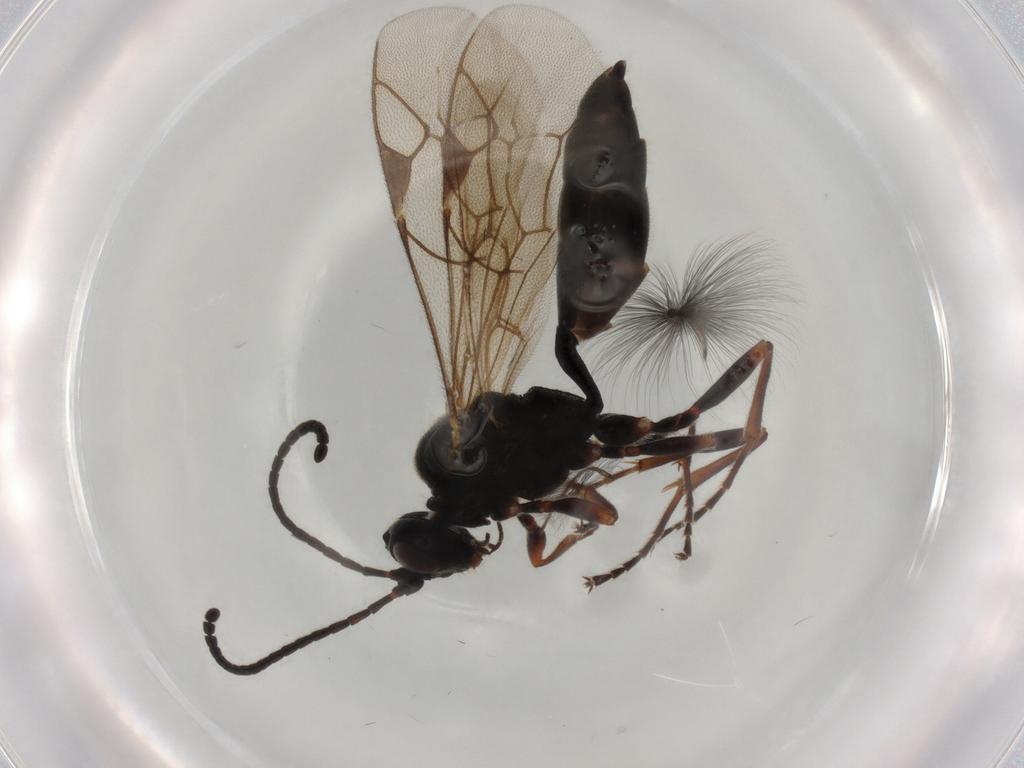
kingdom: Animalia
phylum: Arthropoda
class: Insecta
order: Hymenoptera
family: Ichneumonidae
